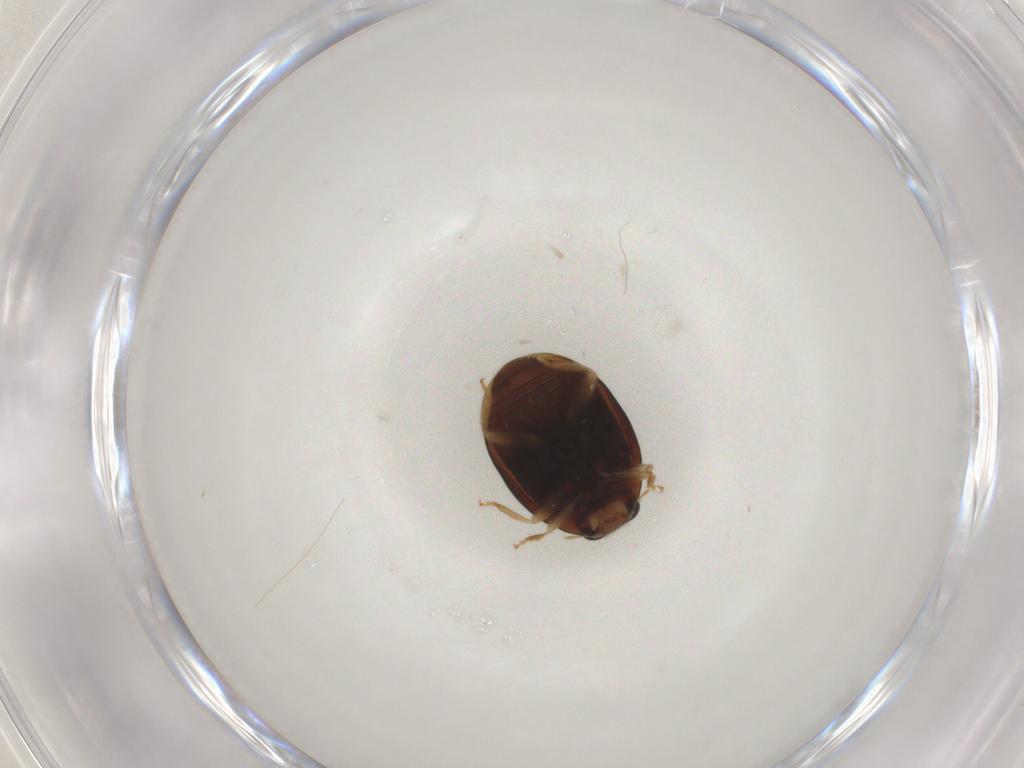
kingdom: Animalia
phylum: Arthropoda
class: Insecta
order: Coleoptera
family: Coccinellidae
